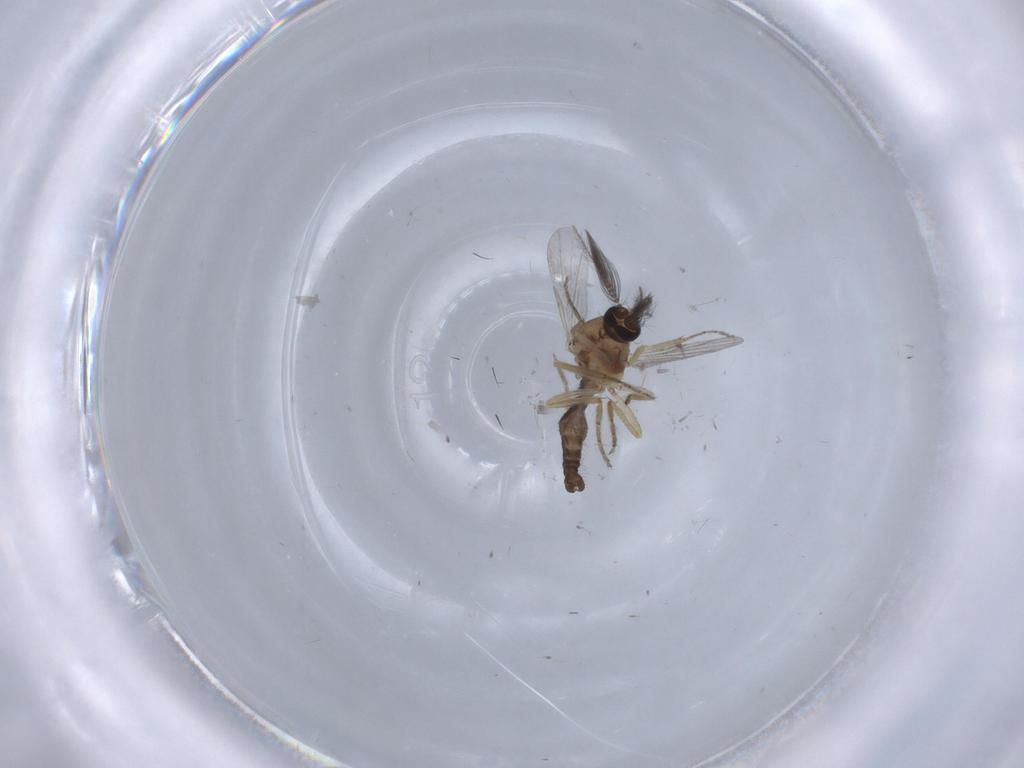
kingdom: Animalia
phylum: Arthropoda
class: Insecta
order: Diptera
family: Ceratopogonidae
